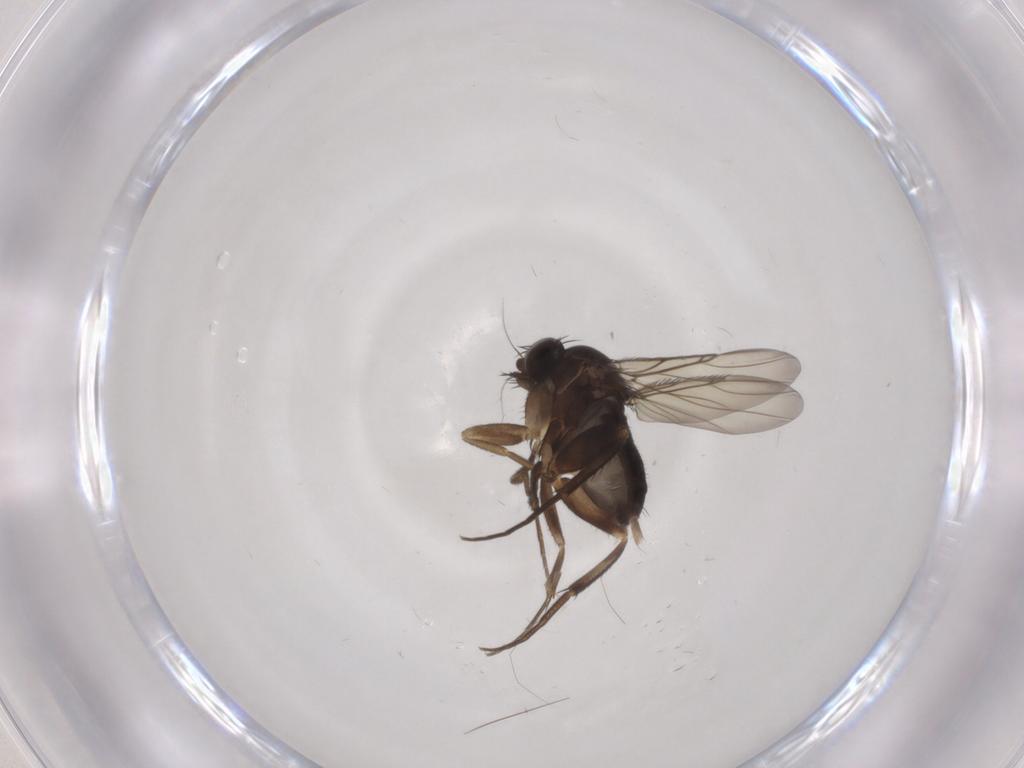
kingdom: Animalia
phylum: Arthropoda
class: Insecta
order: Diptera
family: Phoridae
